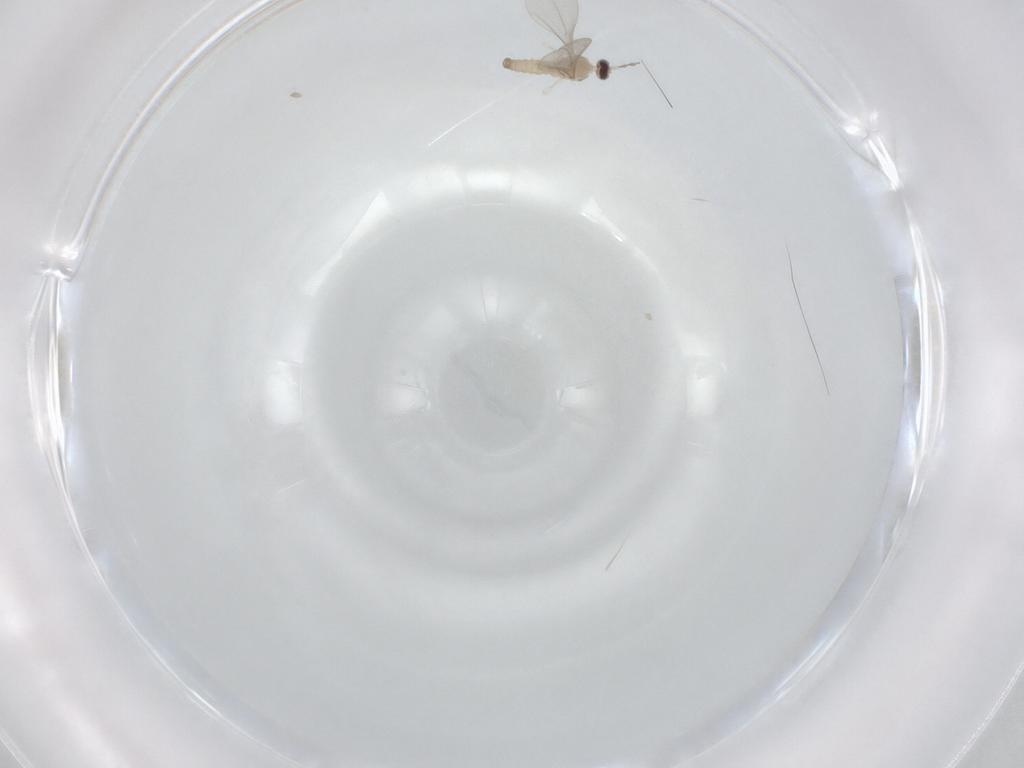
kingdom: Animalia
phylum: Arthropoda
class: Insecta
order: Diptera
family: Cecidomyiidae
